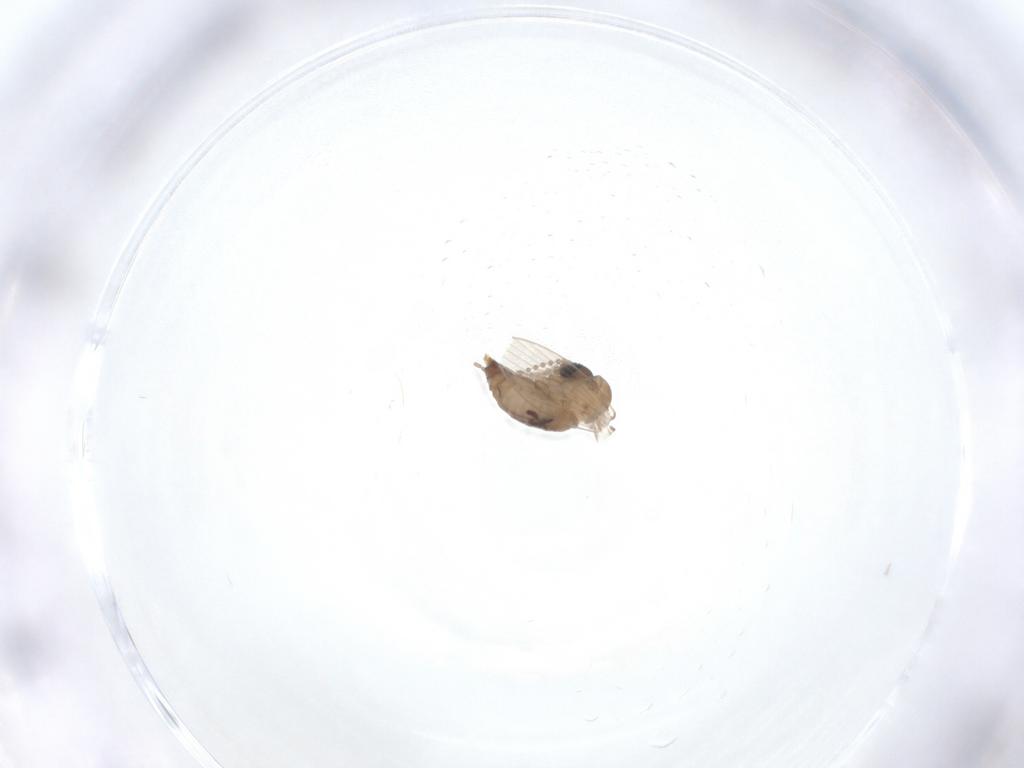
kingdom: Animalia
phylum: Arthropoda
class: Insecta
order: Diptera
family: Psychodidae
